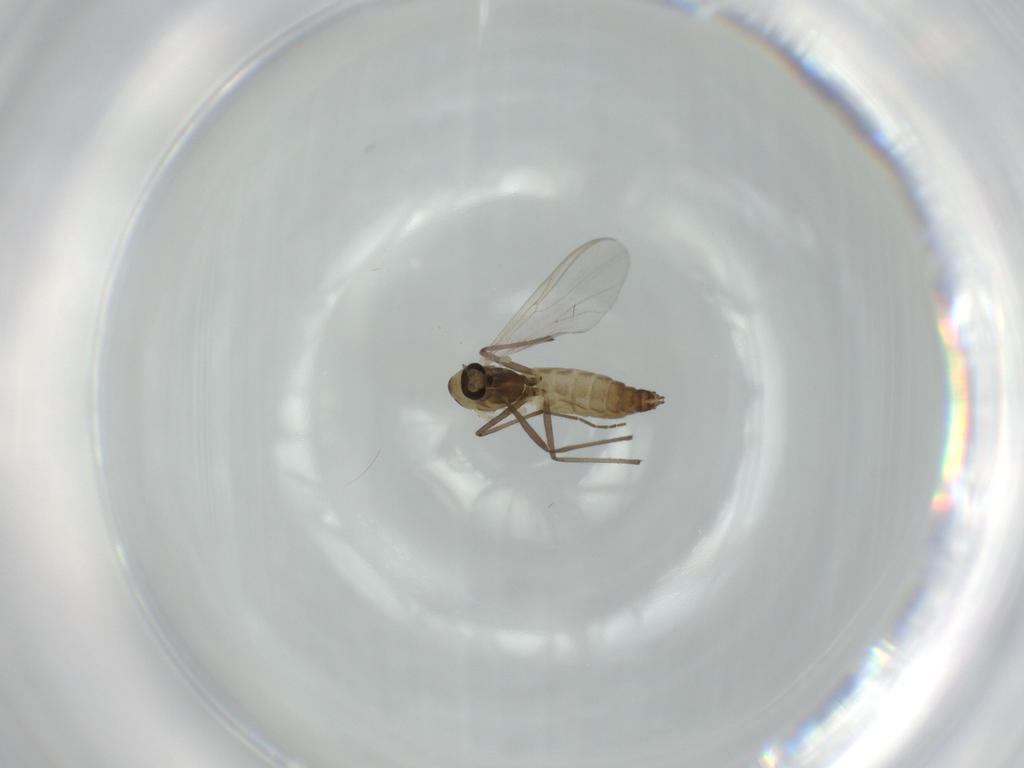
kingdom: Animalia
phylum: Arthropoda
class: Insecta
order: Diptera
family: Chironomidae
